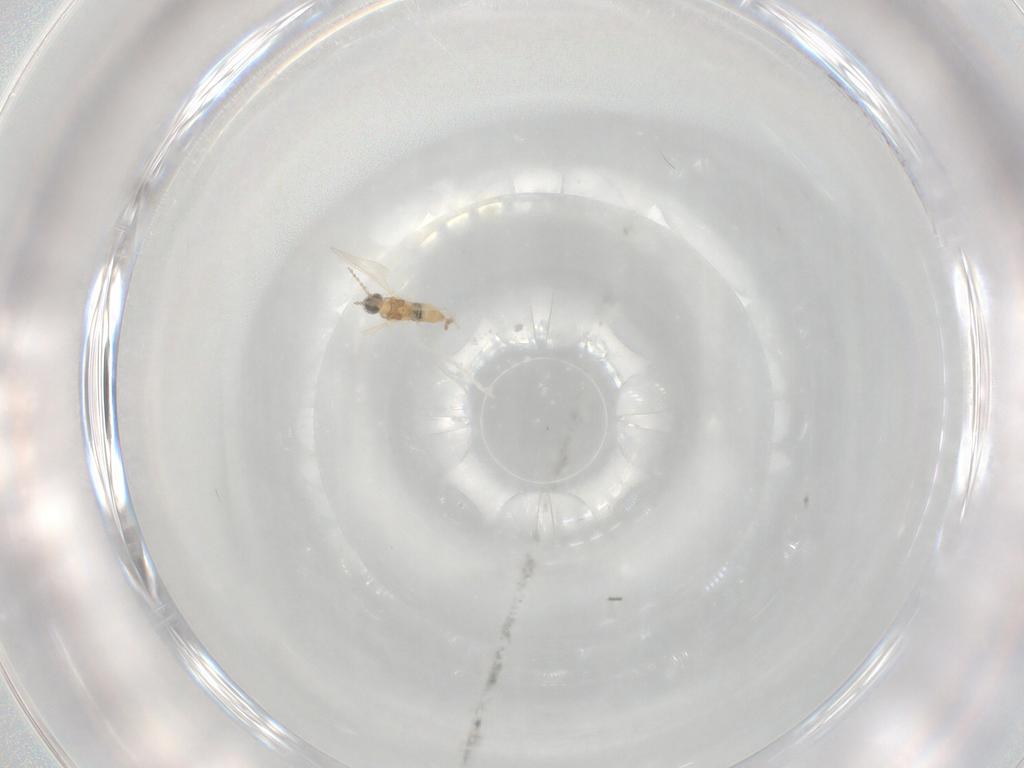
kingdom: Animalia
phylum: Arthropoda
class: Insecta
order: Diptera
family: Cecidomyiidae
